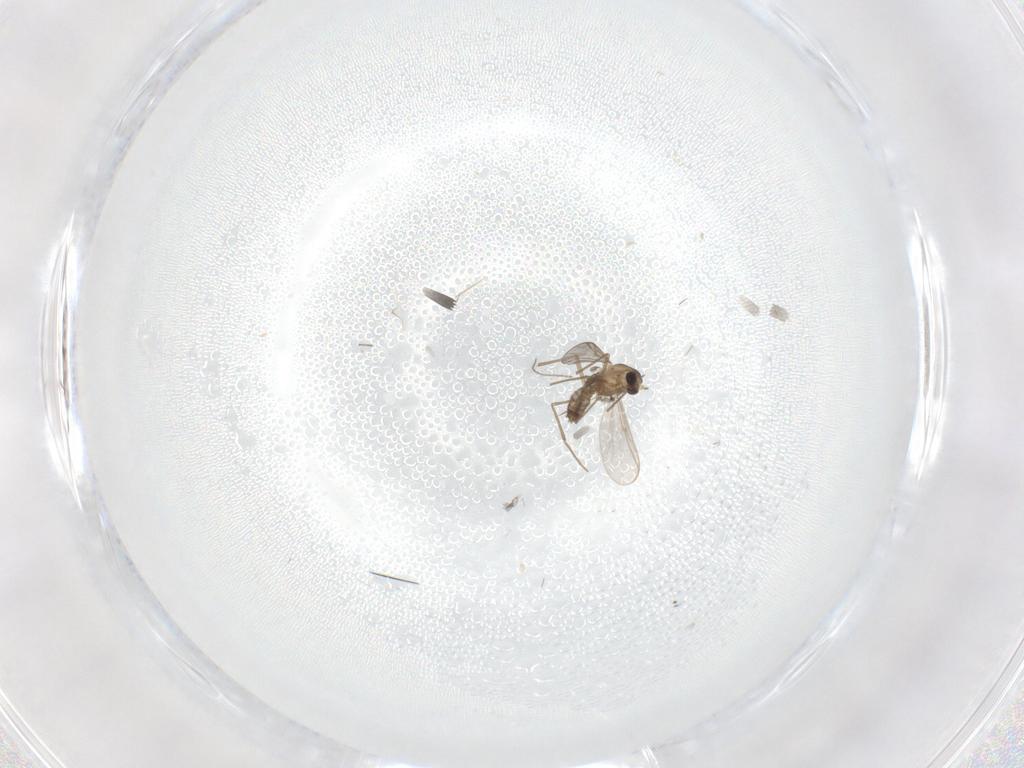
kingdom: Animalia
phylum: Arthropoda
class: Insecta
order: Diptera
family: Chironomidae
